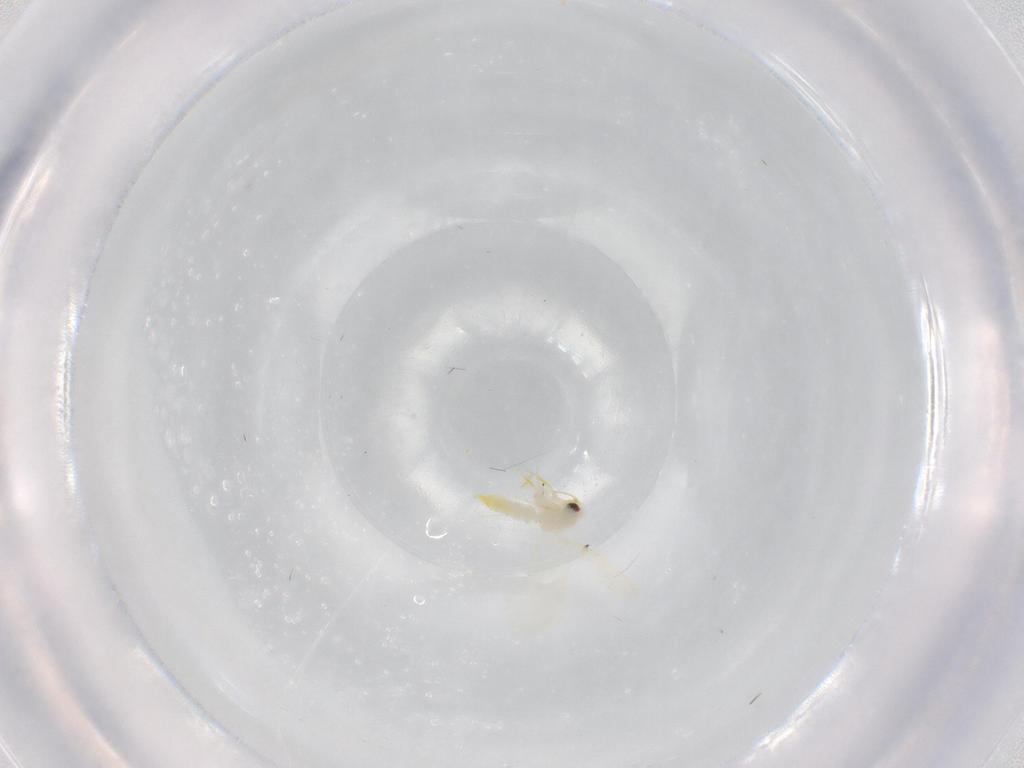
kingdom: Animalia
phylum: Arthropoda
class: Insecta
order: Hemiptera
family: Aleyrodidae
